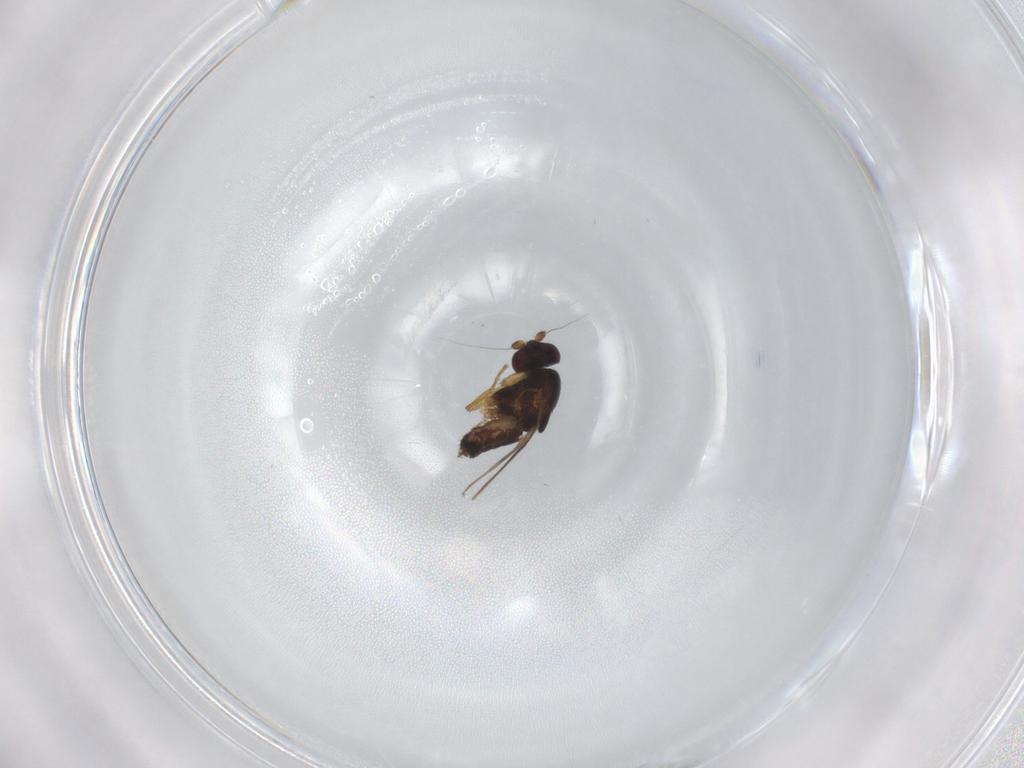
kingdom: Animalia
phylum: Arthropoda
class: Insecta
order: Diptera
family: Sphaeroceridae
